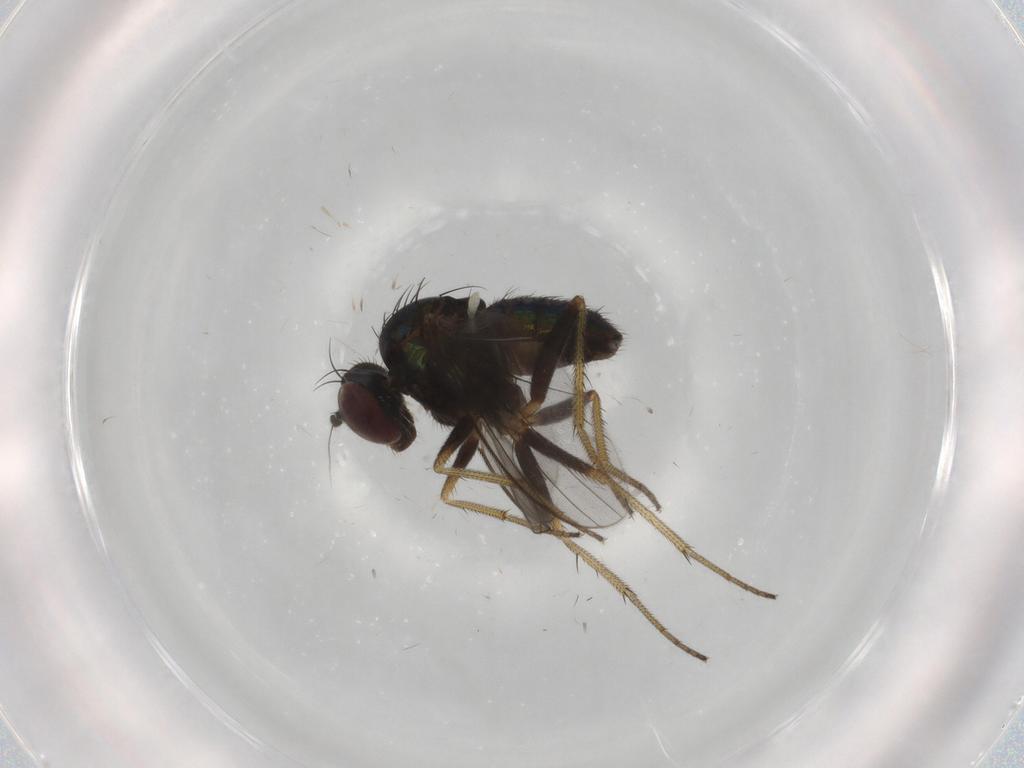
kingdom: Animalia
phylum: Arthropoda
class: Insecta
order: Diptera
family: Dolichopodidae
